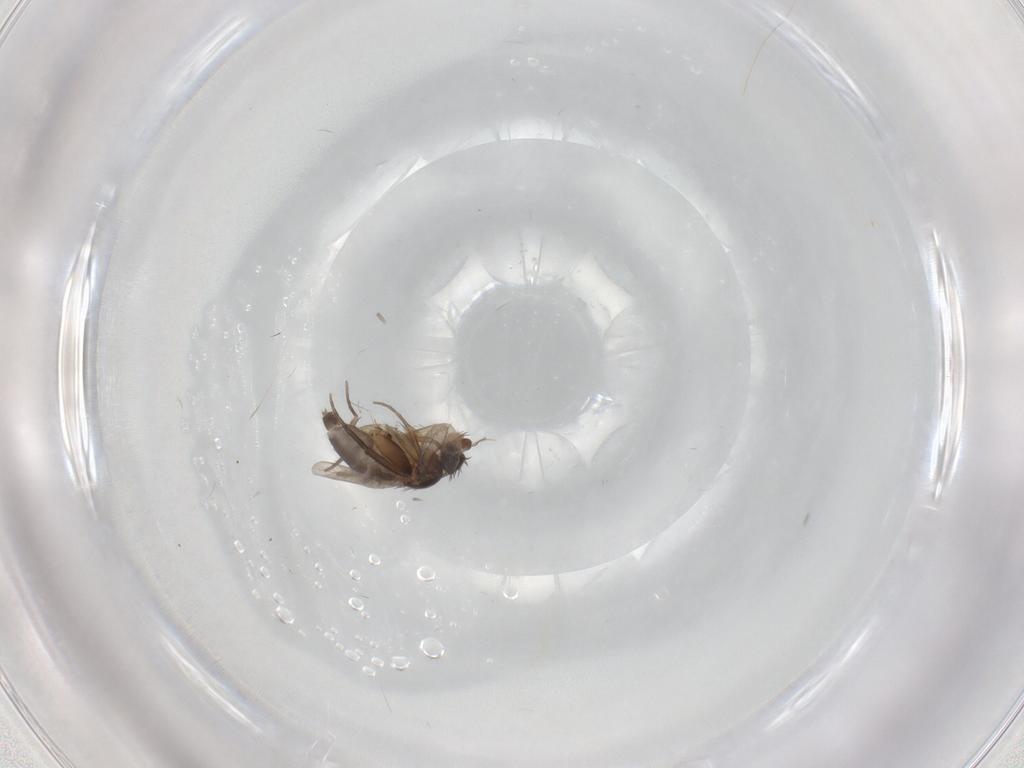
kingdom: Animalia
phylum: Arthropoda
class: Insecta
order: Diptera
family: Phoridae
